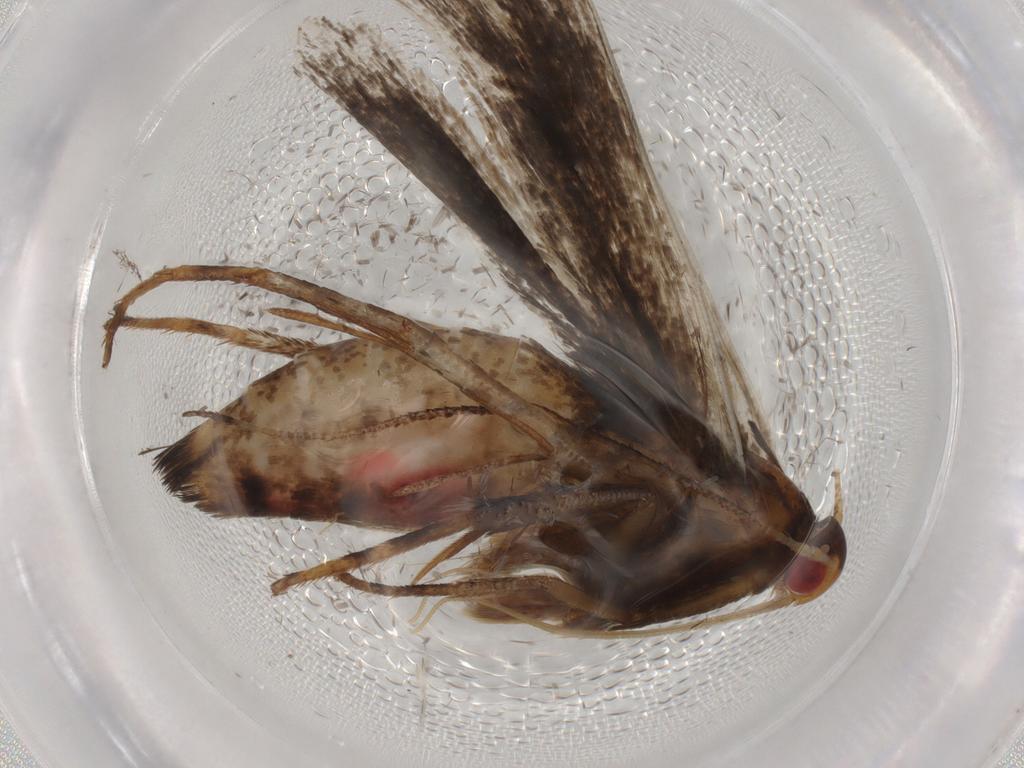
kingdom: Animalia
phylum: Arthropoda
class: Insecta
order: Lepidoptera
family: Gelechiidae
